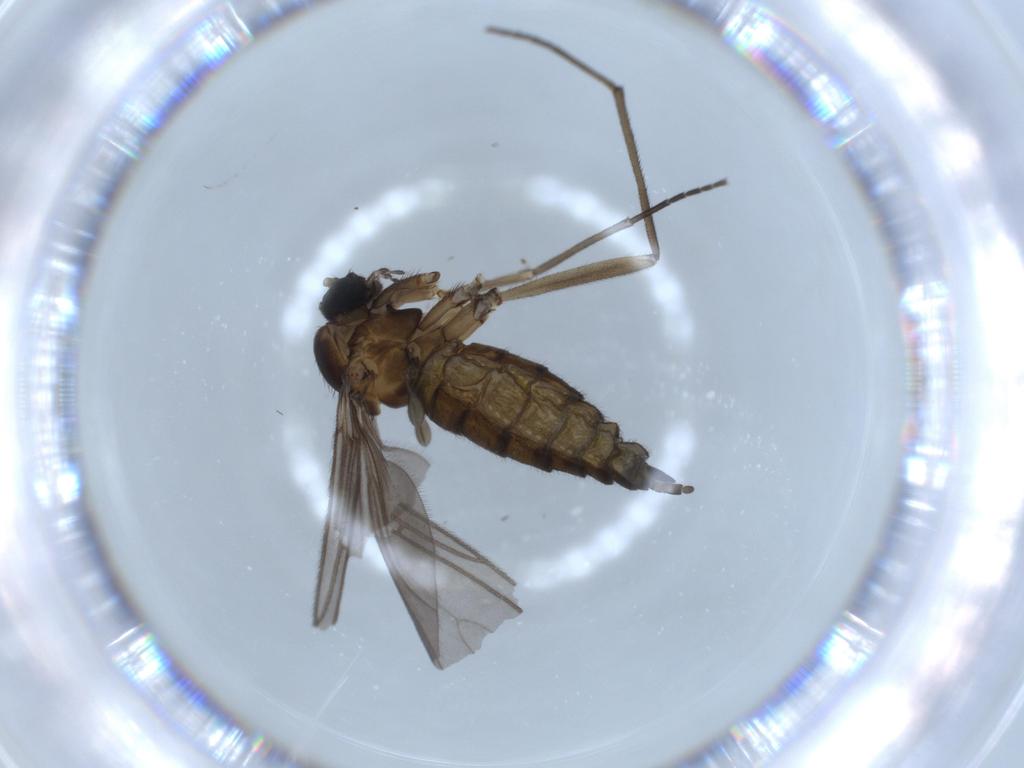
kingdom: Animalia
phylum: Arthropoda
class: Insecta
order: Diptera
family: Sciaridae
